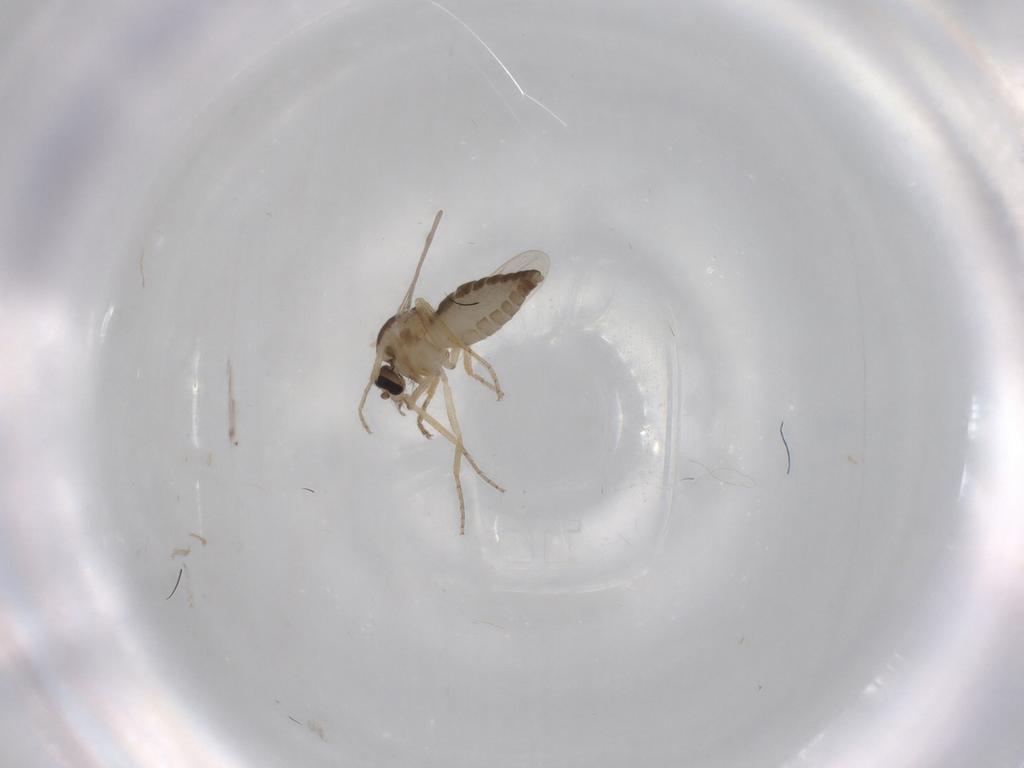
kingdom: Animalia
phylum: Arthropoda
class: Insecta
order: Diptera
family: Ceratopogonidae
